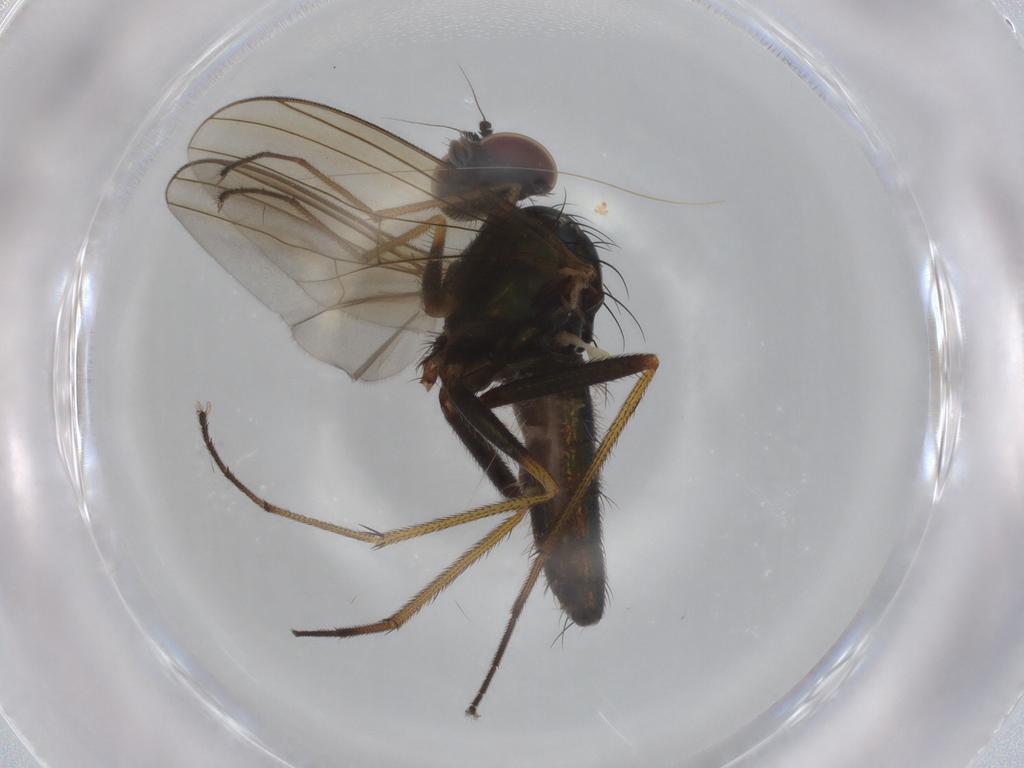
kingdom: Animalia
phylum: Arthropoda
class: Insecta
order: Diptera
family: Dolichopodidae
